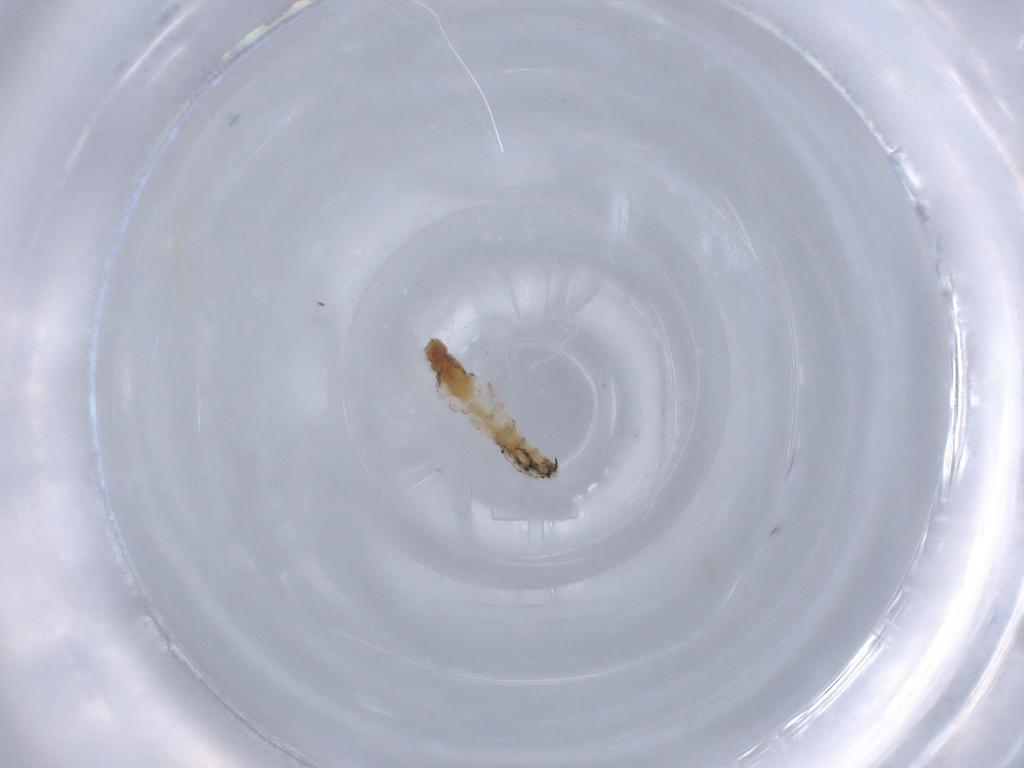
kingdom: Animalia
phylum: Arthropoda
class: Insecta
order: Diptera
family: Sarcophagidae
